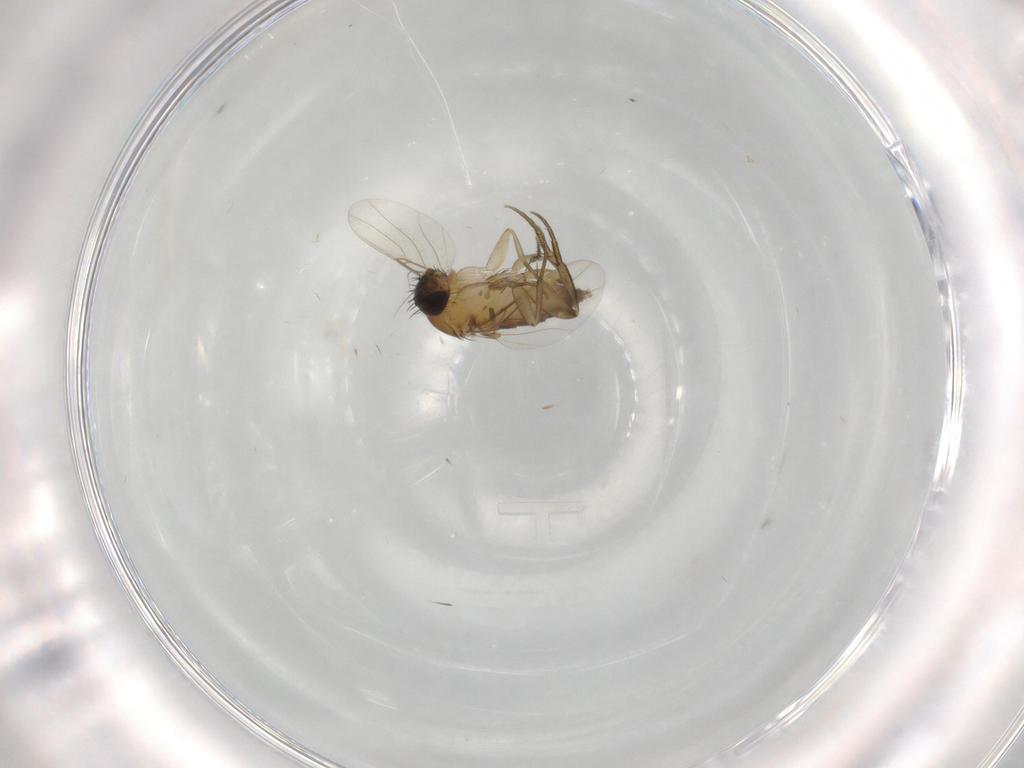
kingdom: Animalia
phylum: Arthropoda
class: Insecta
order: Diptera
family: Phoridae
